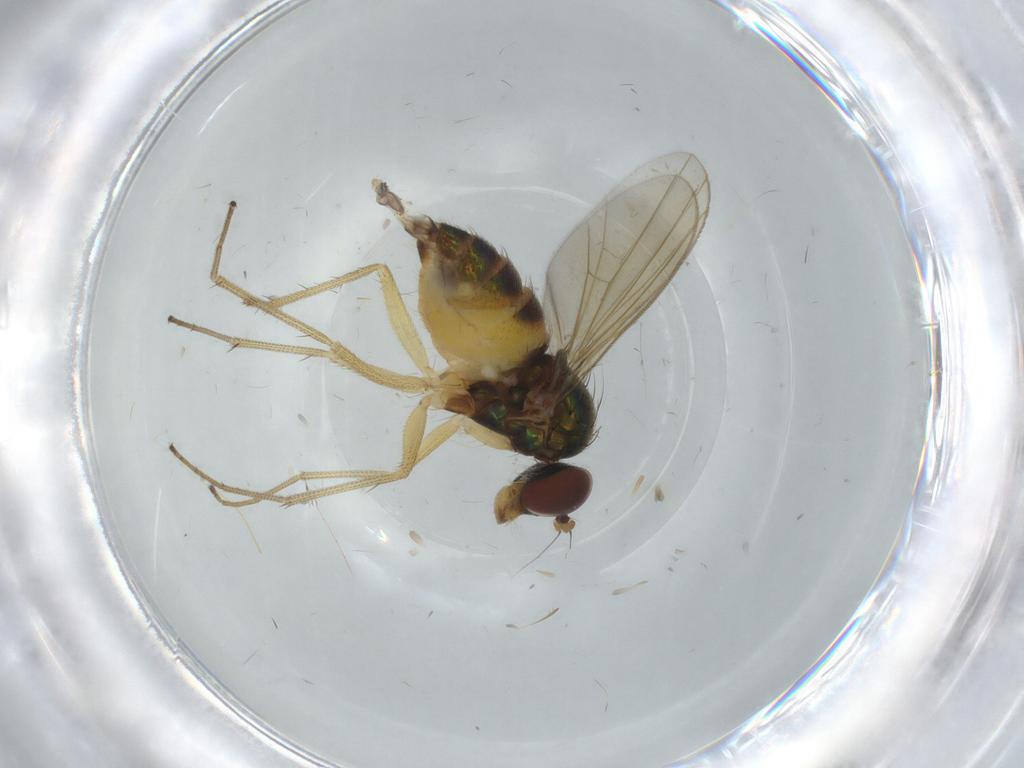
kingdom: Animalia
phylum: Arthropoda
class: Insecta
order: Diptera
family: Dolichopodidae
